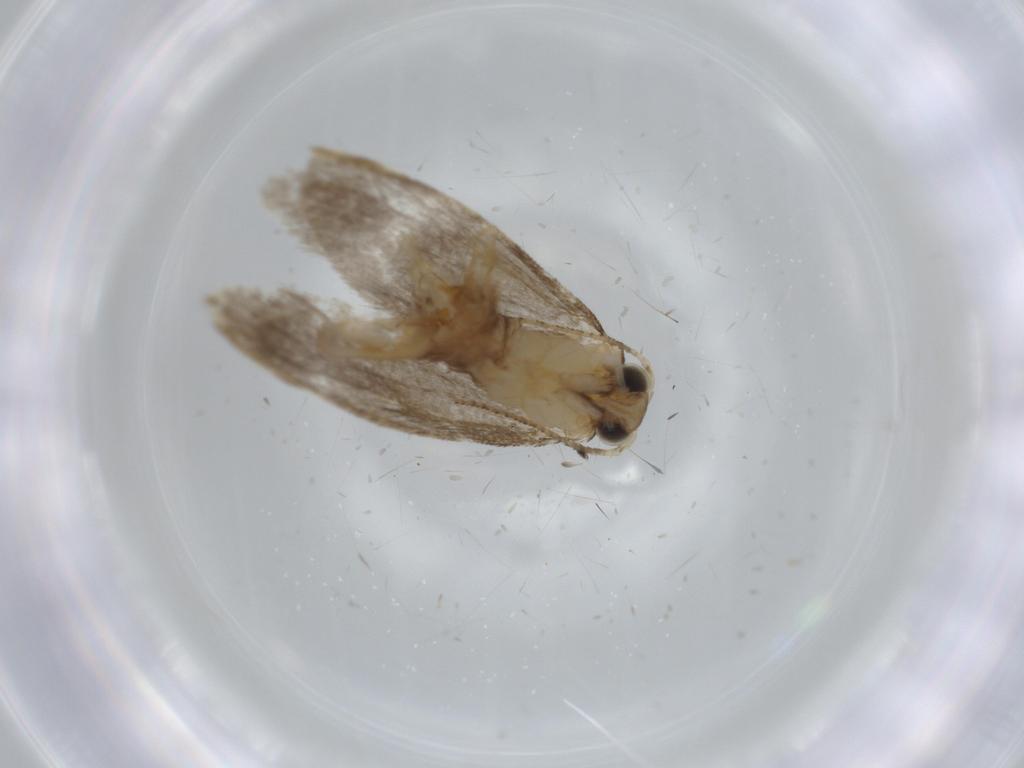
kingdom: Animalia
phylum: Arthropoda
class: Insecta
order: Lepidoptera
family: Tineidae
